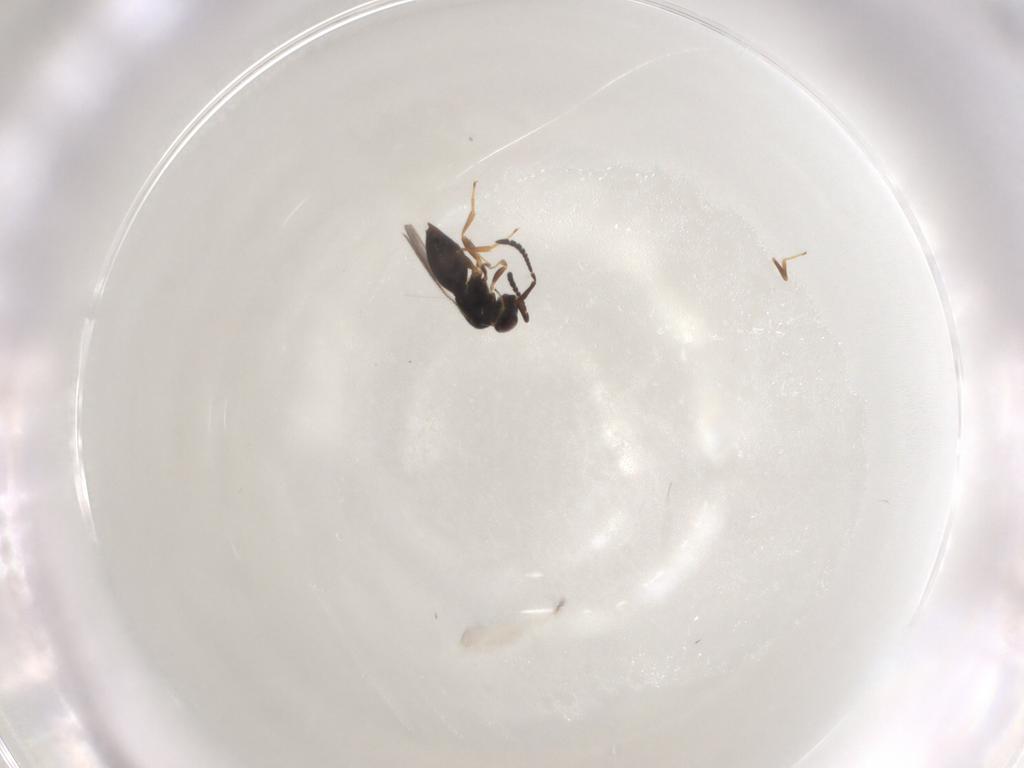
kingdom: Animalia
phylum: Arthropoda
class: Insecta
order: Hymenoptera
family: Ceraphronidae
